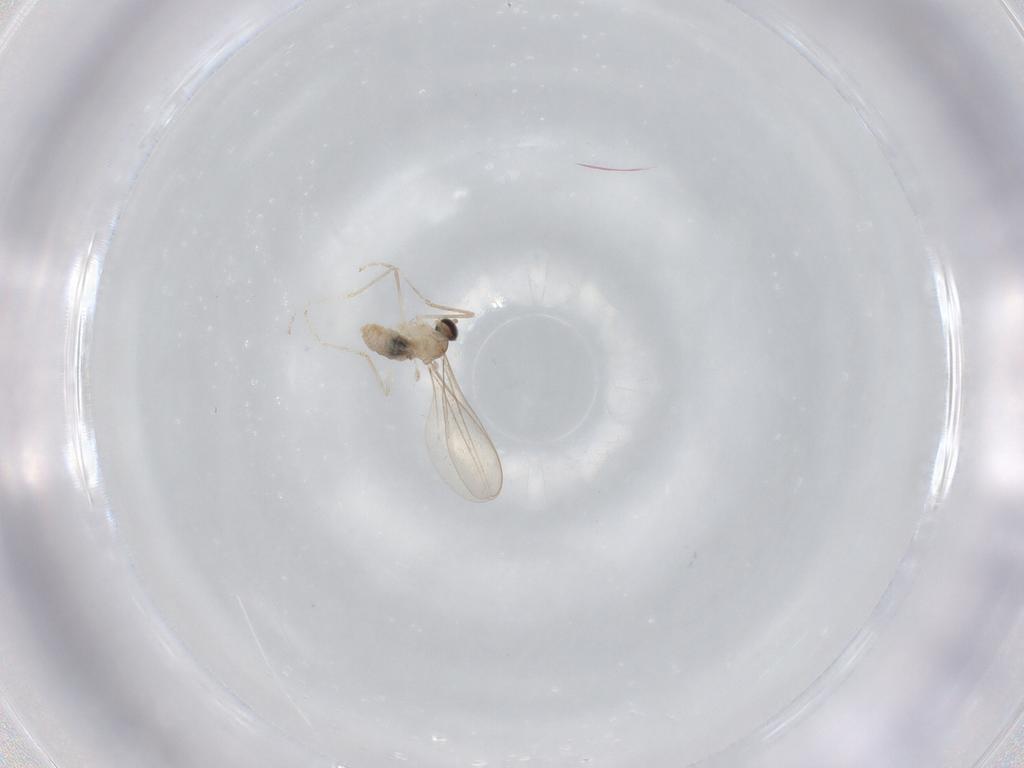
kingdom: Animalia
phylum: Arthropoda
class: Insecta
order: Diptera
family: Cecidomyiidae
